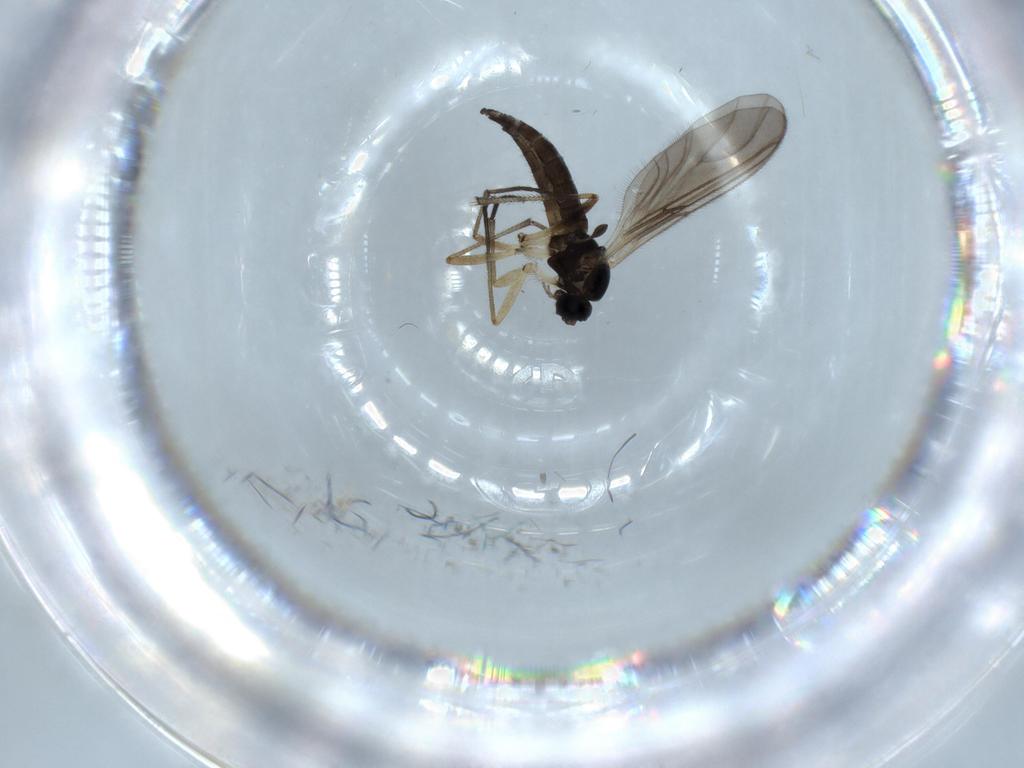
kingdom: Animalia
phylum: Arthropoda
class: Insecta
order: Diptera
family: Sciaridae
